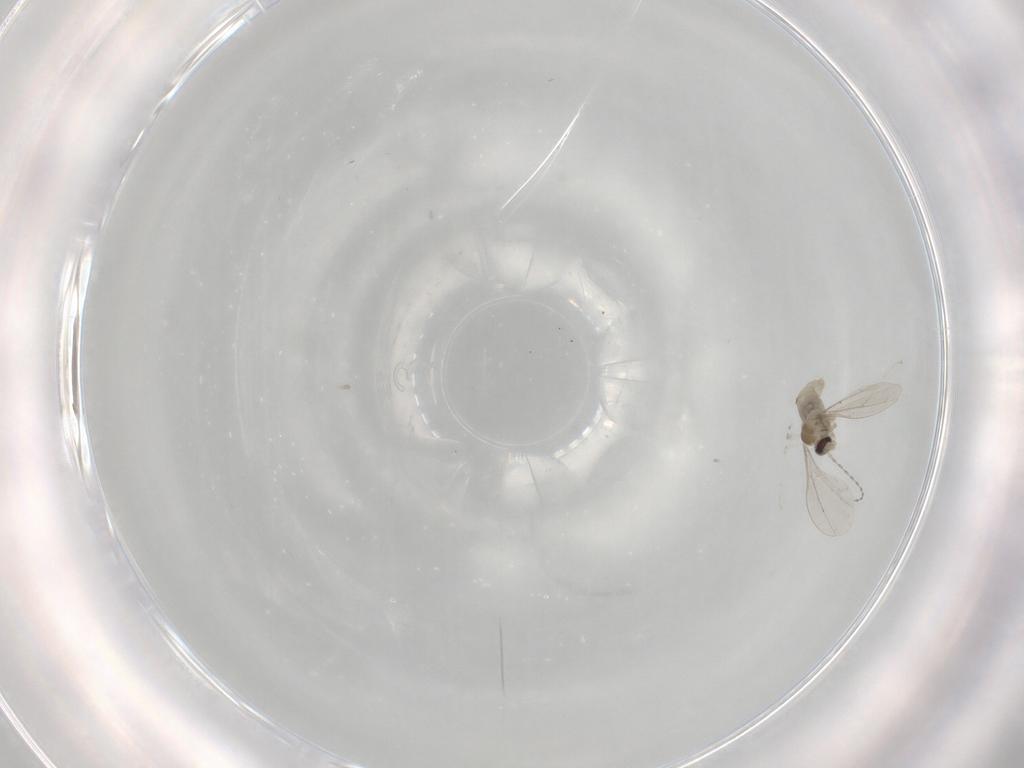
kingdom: Animalia
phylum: Arthropoda
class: Insecta
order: Diptera
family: Cecidomyiidae
